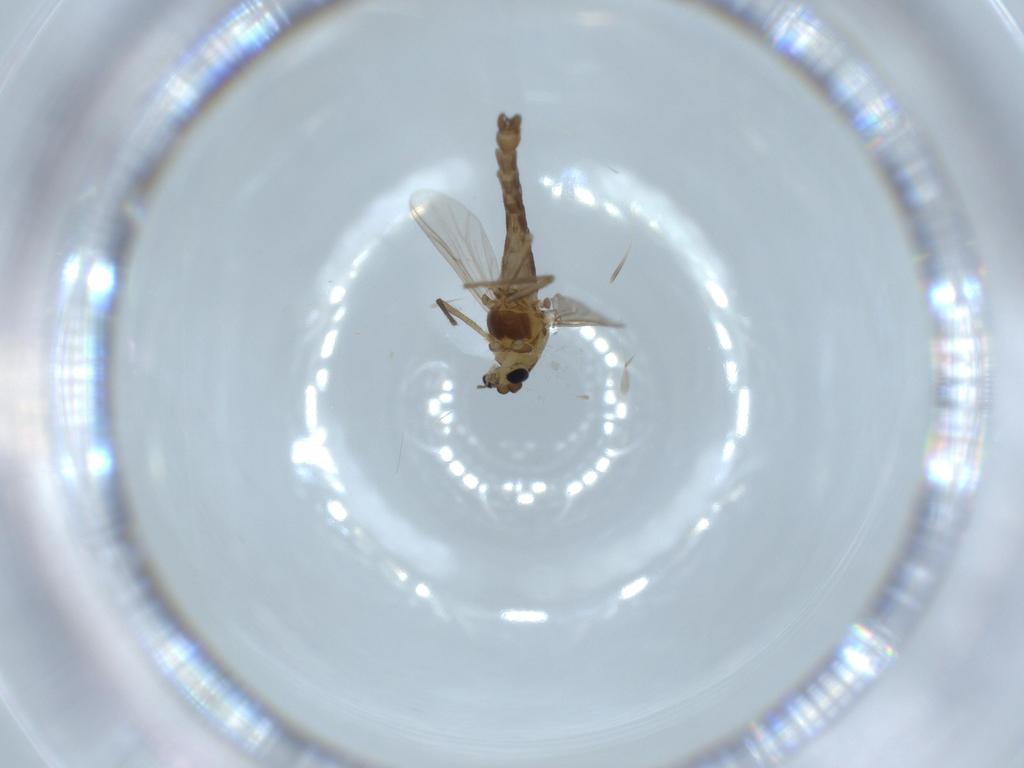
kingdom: Animalia
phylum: Arthropoda
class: Insecta
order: Diptera
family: Chironomidae
